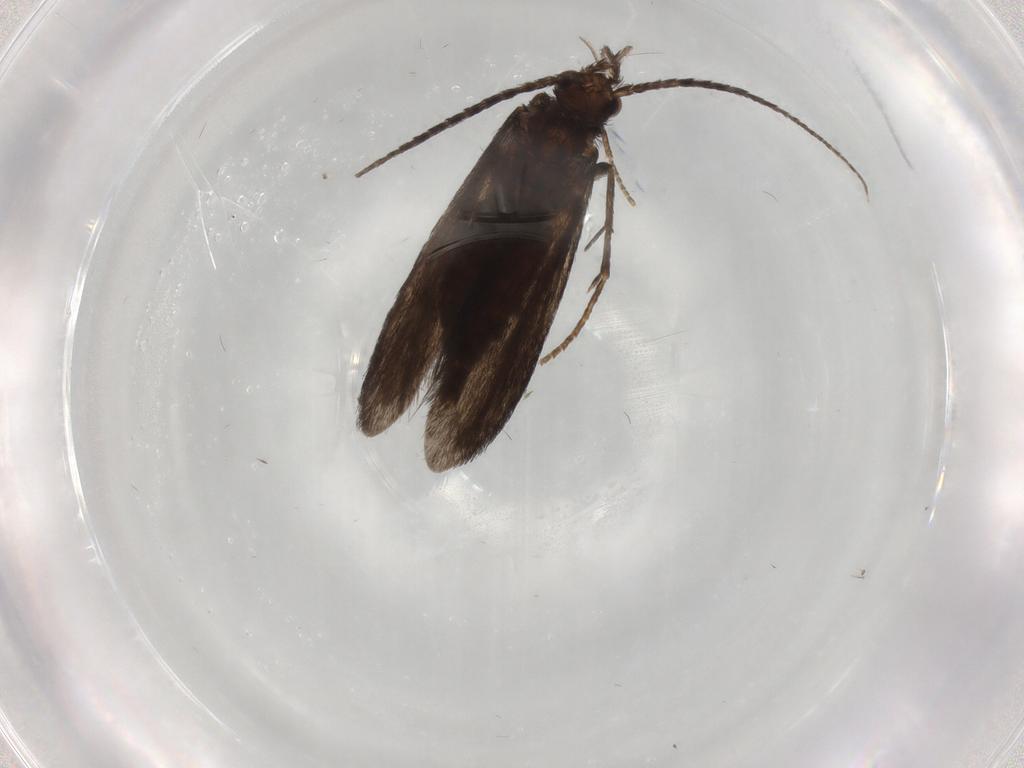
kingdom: Animalia
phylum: Arthropoda
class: Insecta
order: Trichoptera
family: Xiphocentronidae
